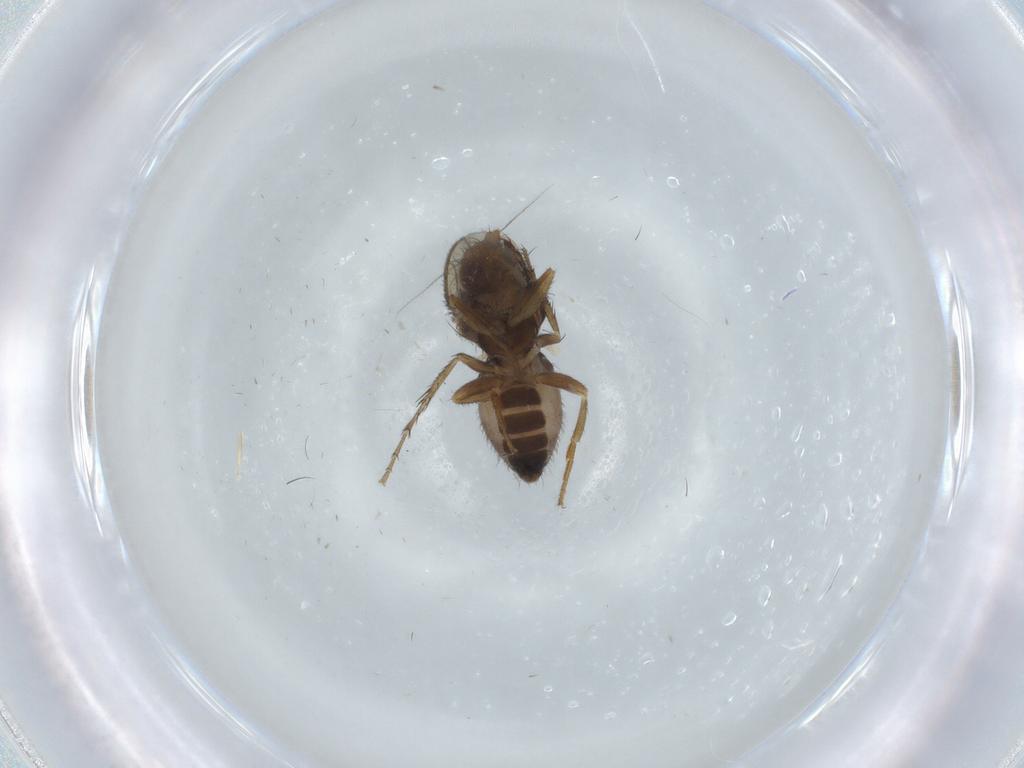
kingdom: Animalia
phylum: Arthropoda
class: Insecta
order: Diptera
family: Sphaeroceridae
